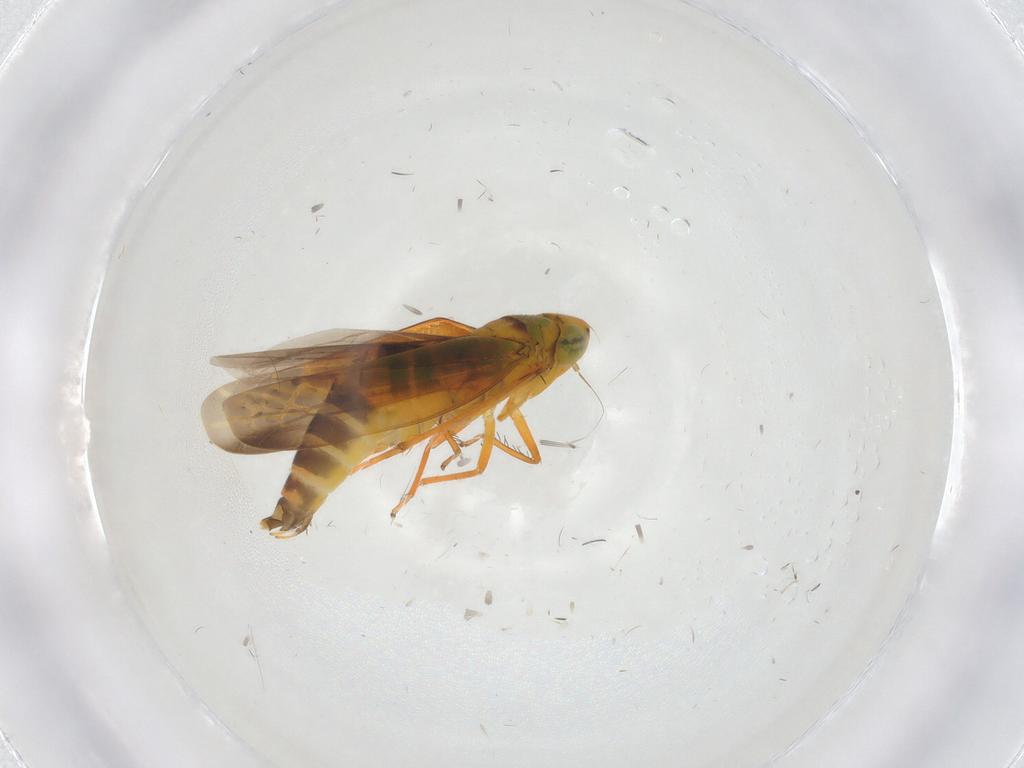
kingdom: Animalia
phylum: Arthropoda
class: Insecta
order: Hemiptera
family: Cicadellidae
